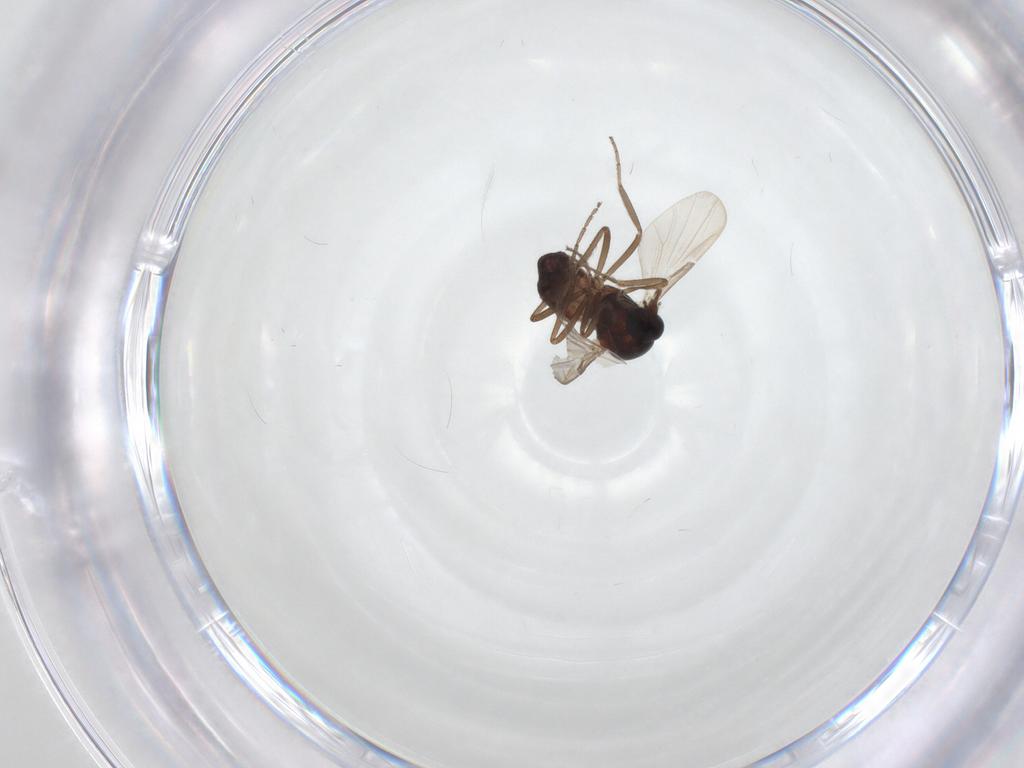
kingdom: Animalia
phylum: Arthropoda
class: Insecta
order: Diptera
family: Ceratopogonidae
